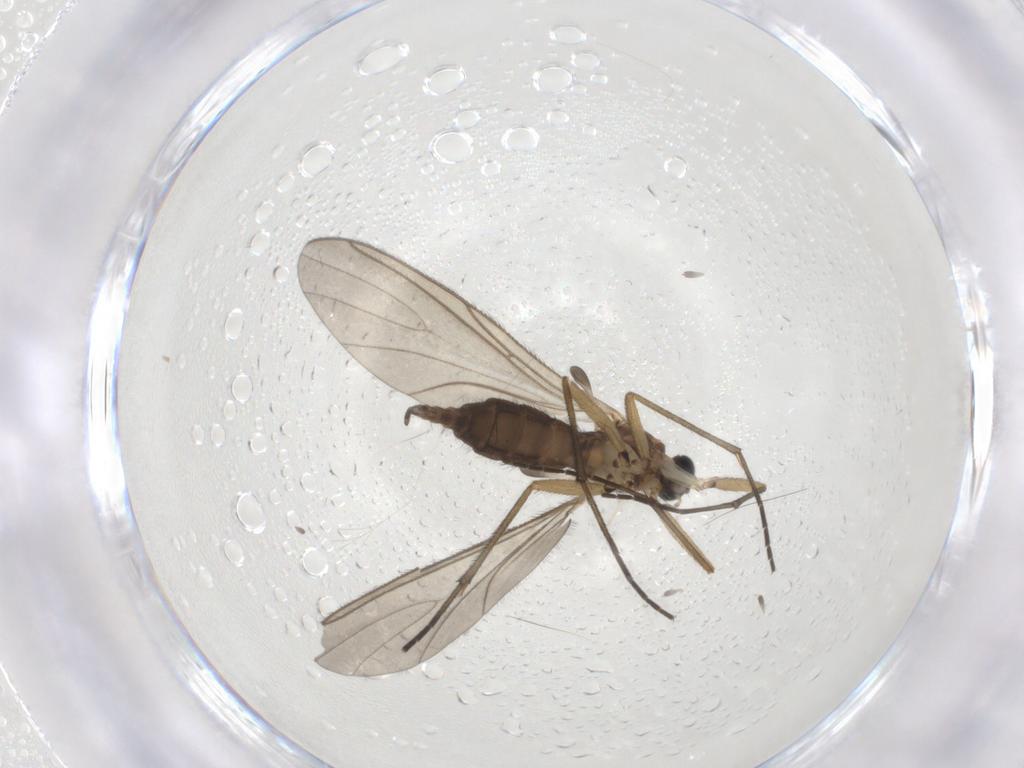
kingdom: Animalia
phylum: Arthropoda
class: Insecta
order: Diptera
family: Sciaridae
